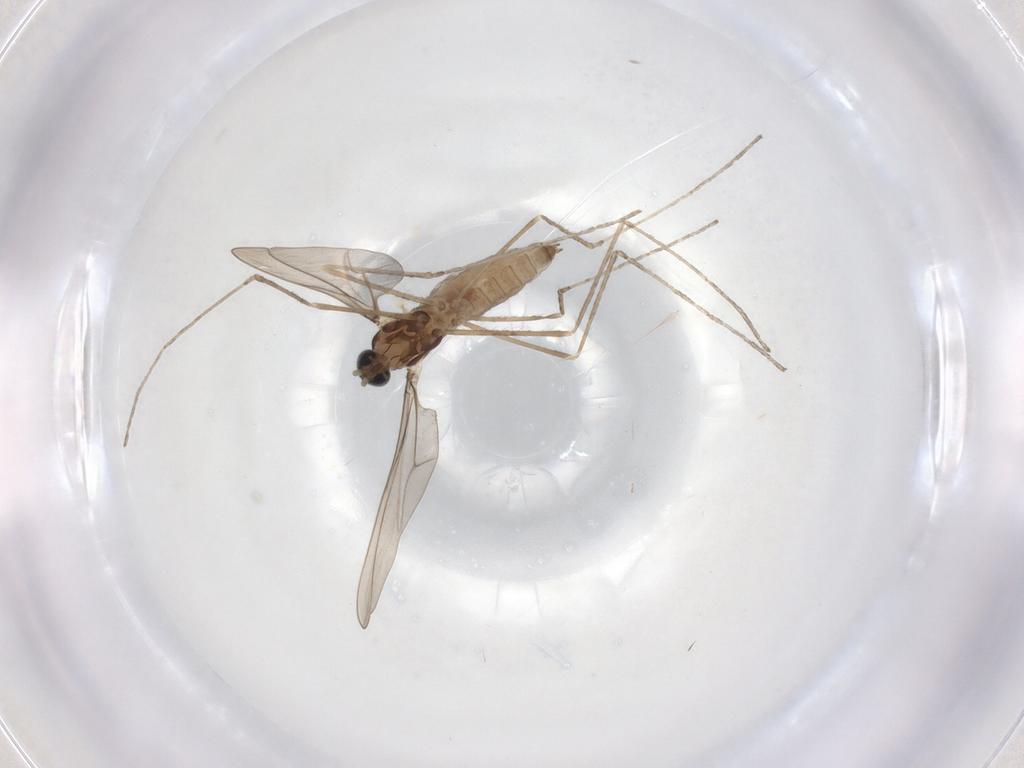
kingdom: Animalia
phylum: Arthropoda
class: Insecta
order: Diptera
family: Cecidomyiidae
